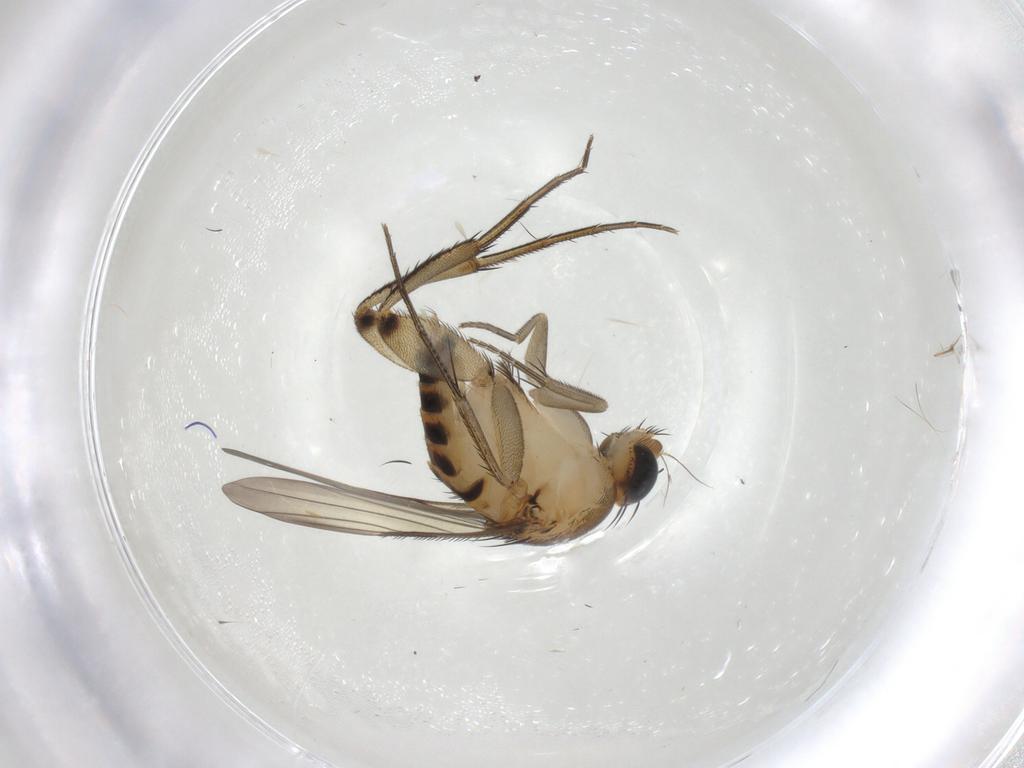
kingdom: Animalia
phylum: Arthropoda
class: Insecta
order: Diptera
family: Phoridae
